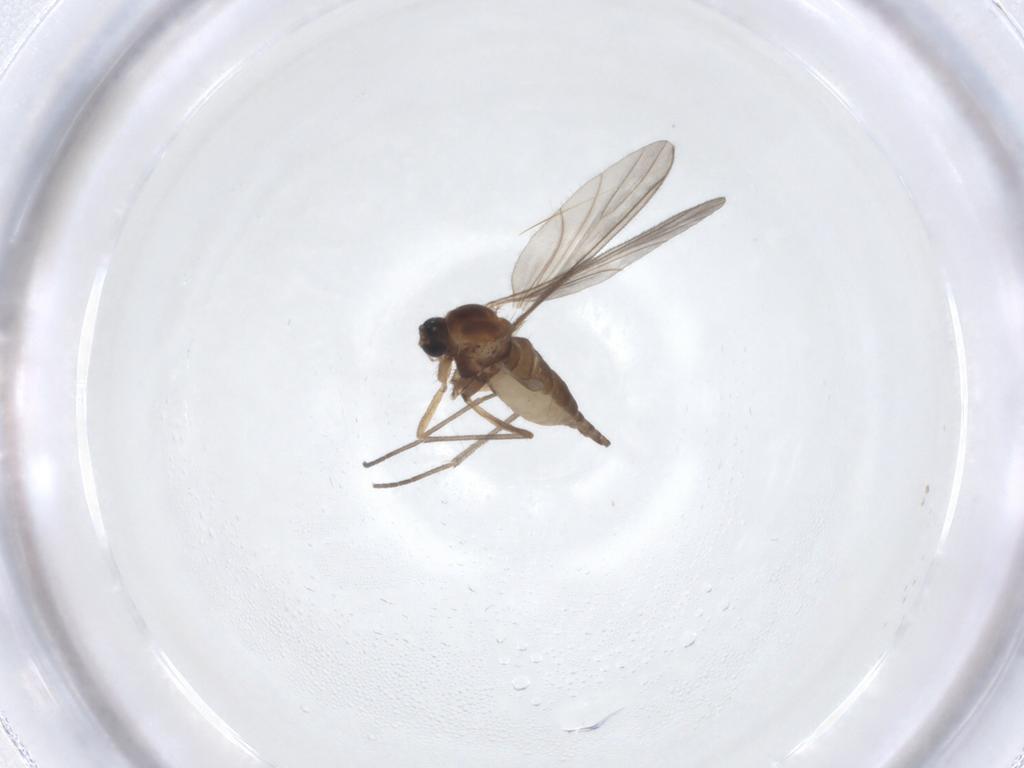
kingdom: Animalia
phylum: Arthropoda
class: Insecta
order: Diptera
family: Sciaridae
